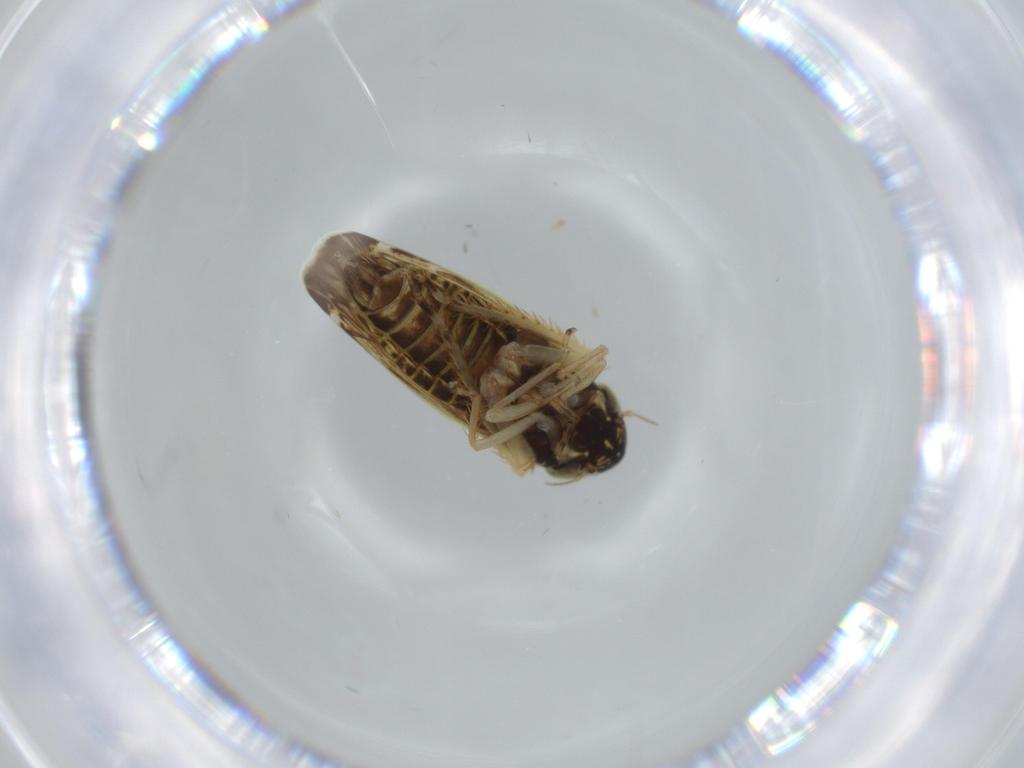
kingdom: Animalia
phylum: Arthropoda
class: Insecta
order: Hemiptera
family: Cicadellidae
